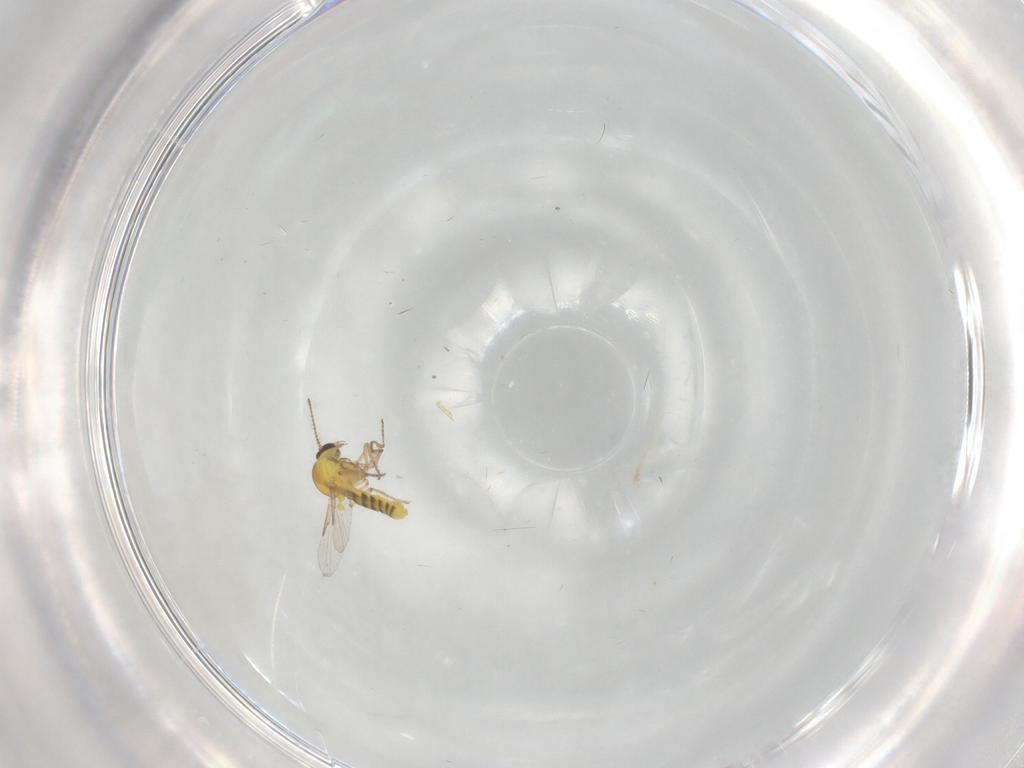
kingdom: Animalia
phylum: Arthropoda
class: Insecta
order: Diptera
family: Ceratopogonidae
